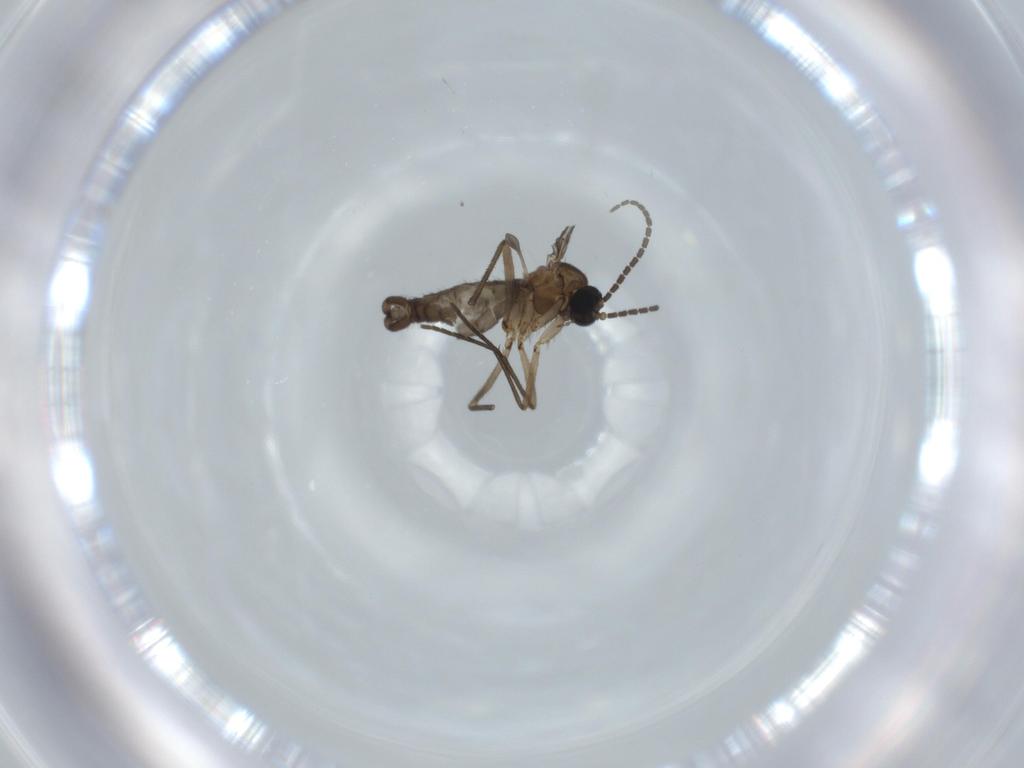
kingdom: Animalia
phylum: Arthropoda
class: Insecta
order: Diptera
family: Sciaridae
